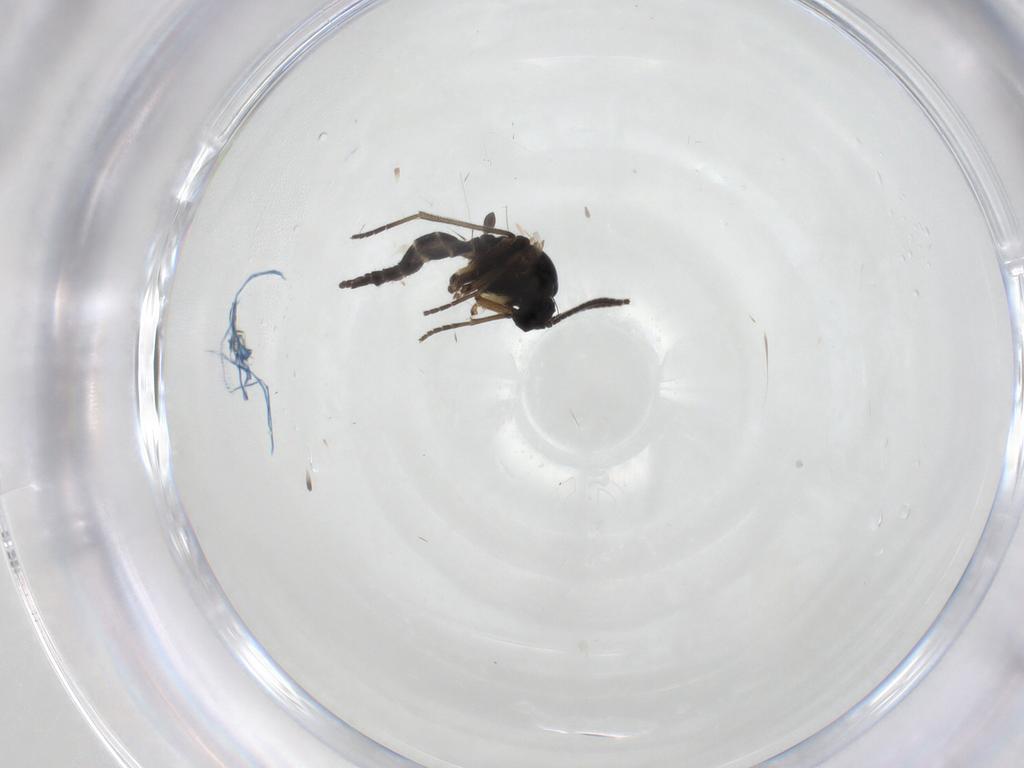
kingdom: Animalia
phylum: Arthropoda
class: Insecta
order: Diptera
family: Sciaridae
